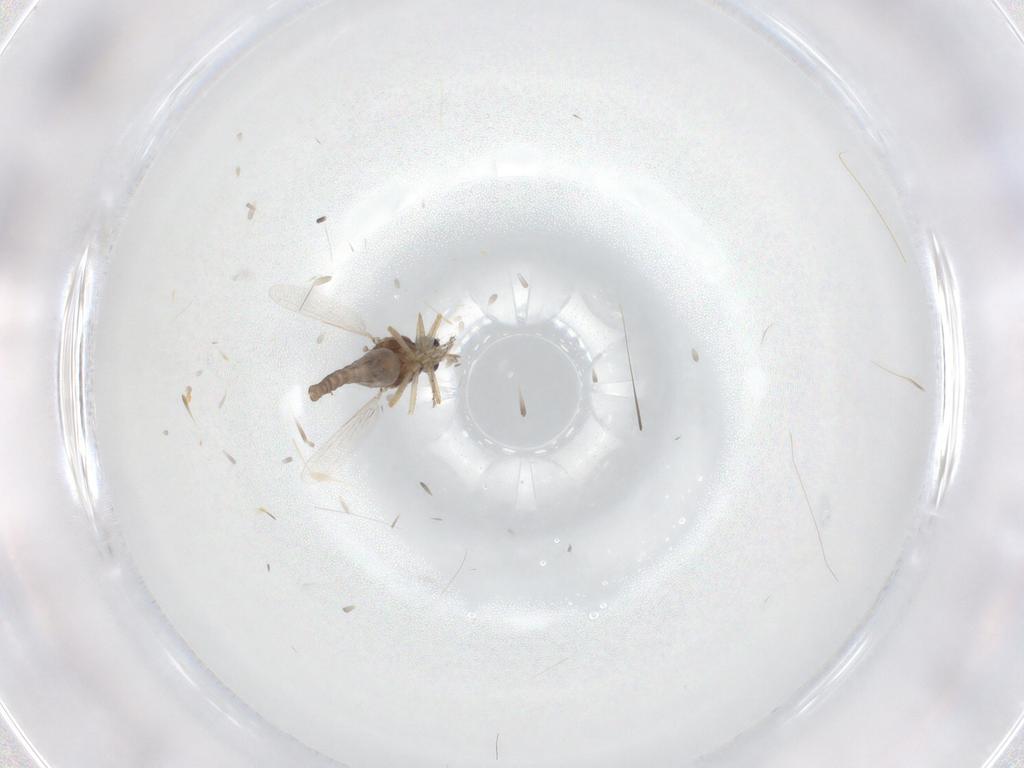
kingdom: Animalia
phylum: Arthropoda
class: Insecta
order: Diptera
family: Ceratopogonidae
